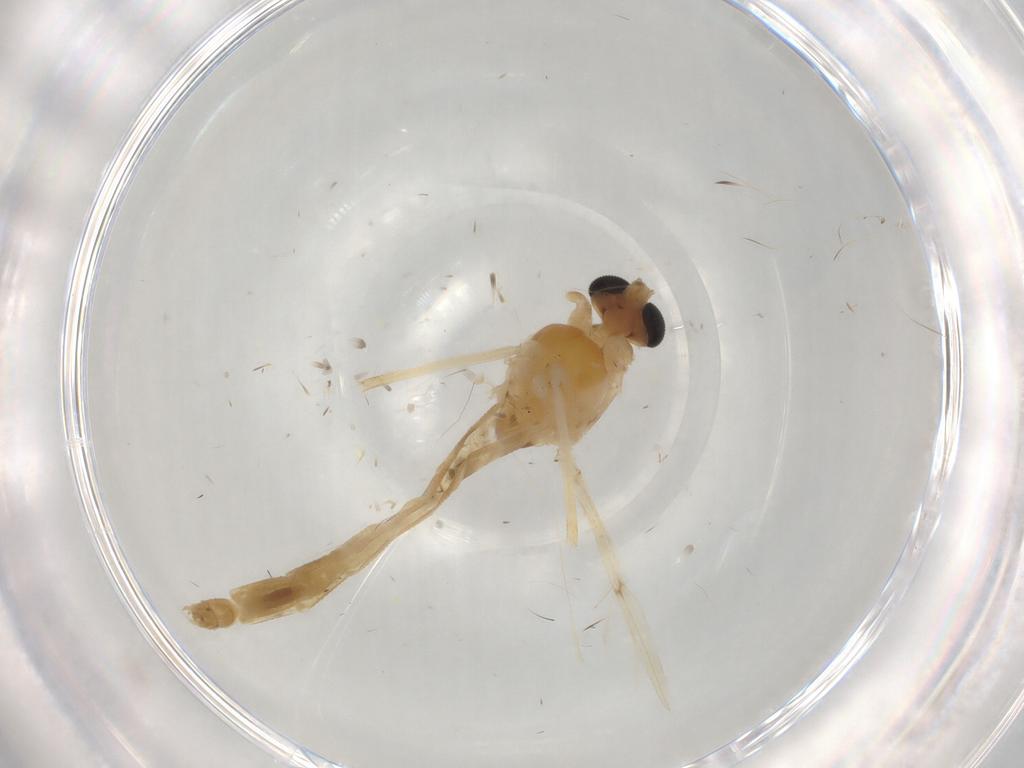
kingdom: Animalia
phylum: Arthropoda
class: Insecta
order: Diptera
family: Chironomidae
